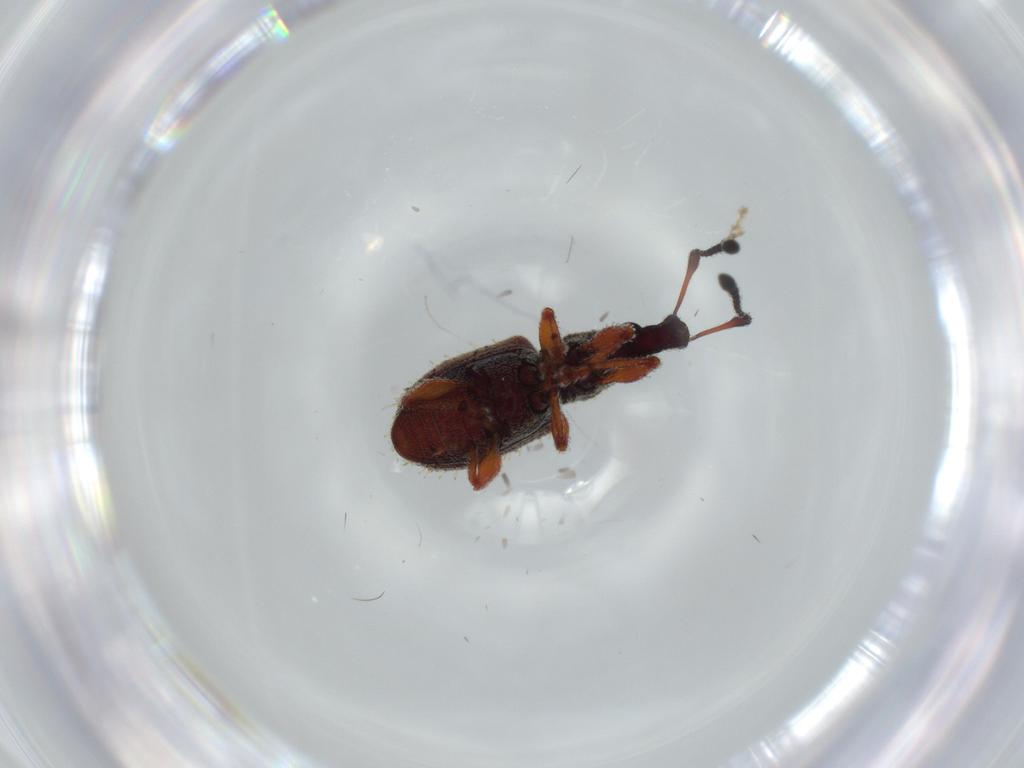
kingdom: Animalia
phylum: Arthropoda
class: Insecta
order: Coleoptera
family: Curculionidae
